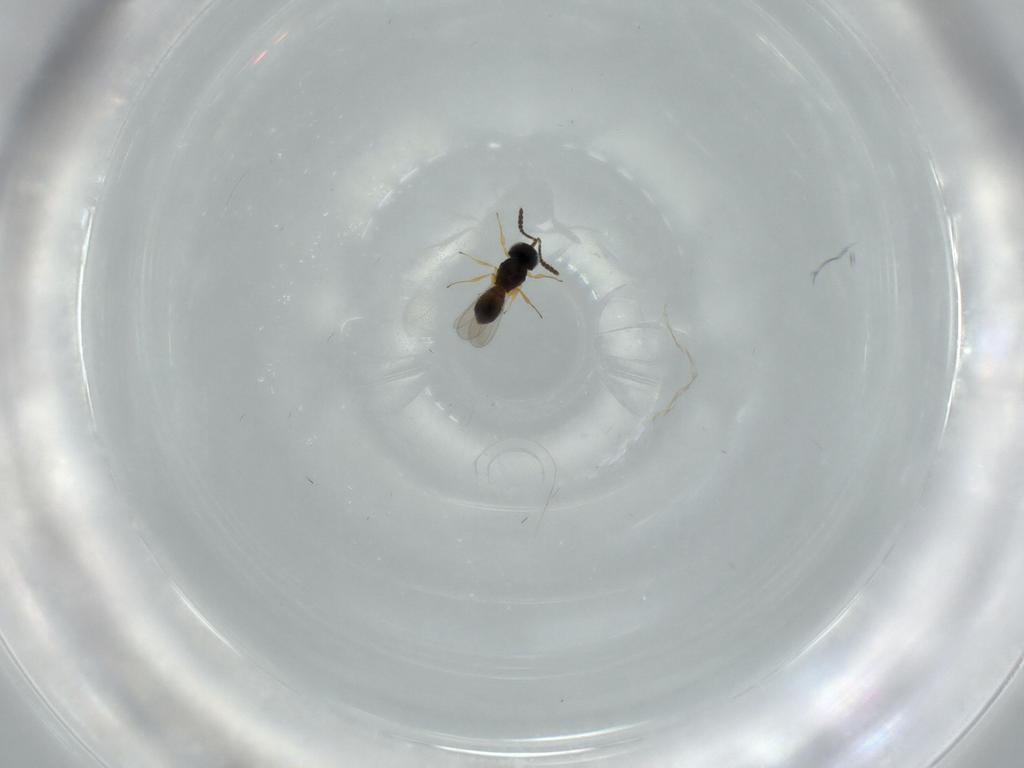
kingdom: Animalia
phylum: Arthropoda
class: Insecta
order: Hymenoptera
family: Scelionidae
